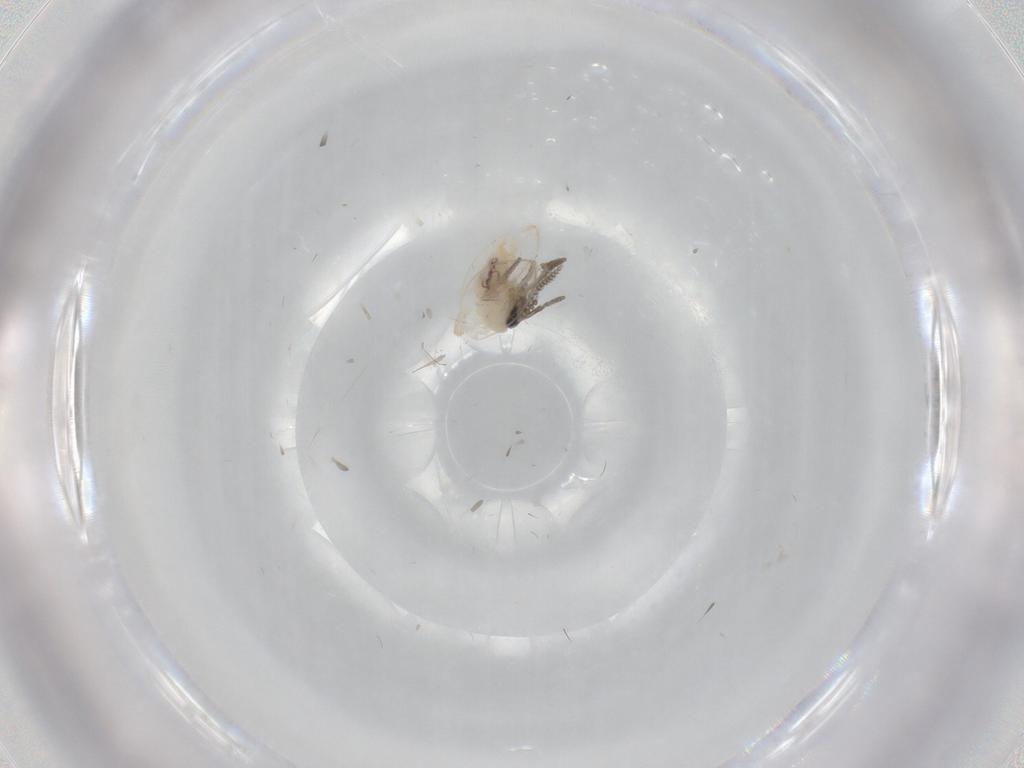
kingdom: Animalia
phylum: Arthropoda
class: Insecta
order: Diptera
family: Psychodidae
